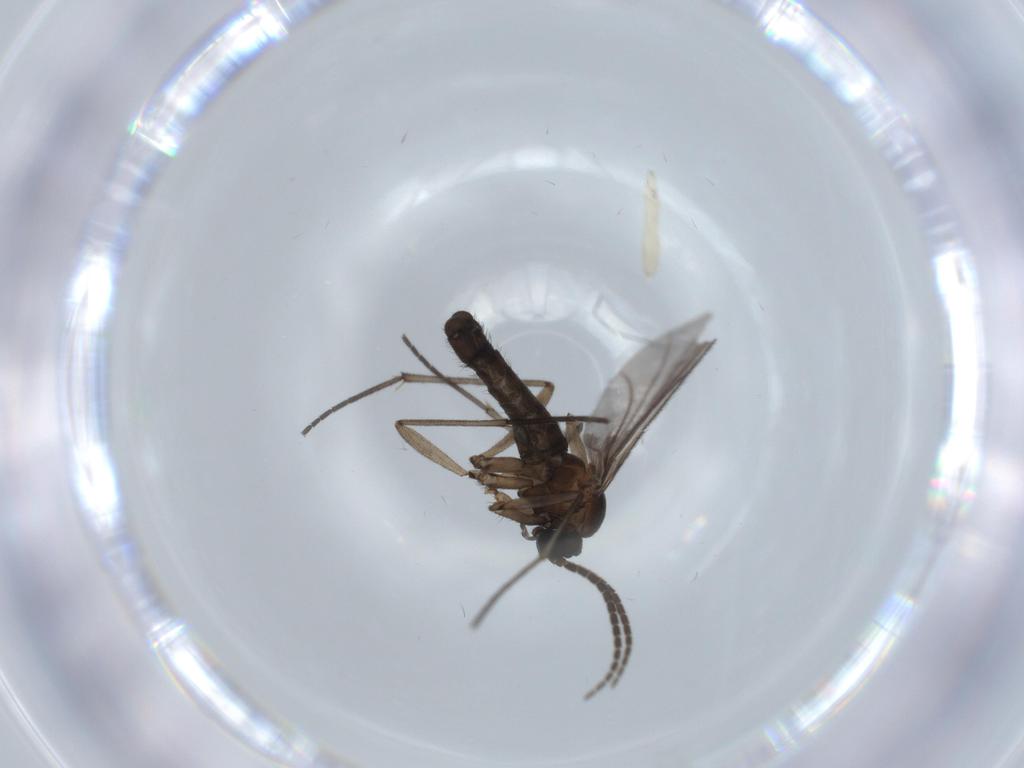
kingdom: Animalia
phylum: Arthropoda
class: Insecta
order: Diptera
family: Sciaridae
